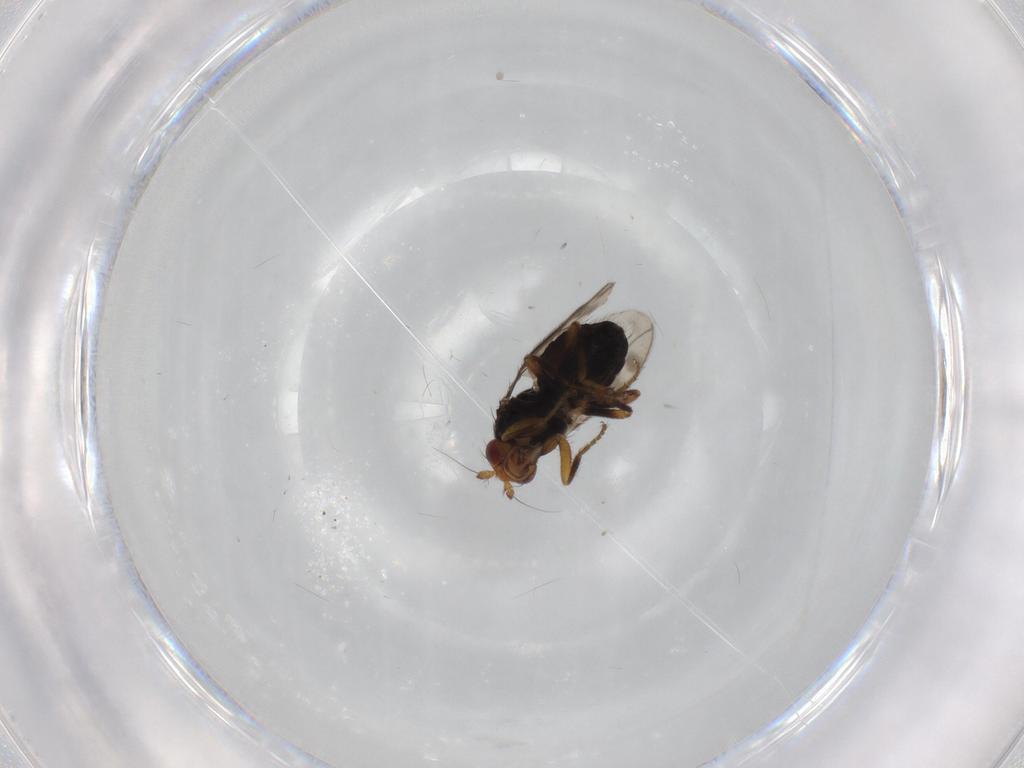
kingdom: Animalia
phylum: Arthropoda
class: Insecta
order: Diptera
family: Sphaeroceridae
